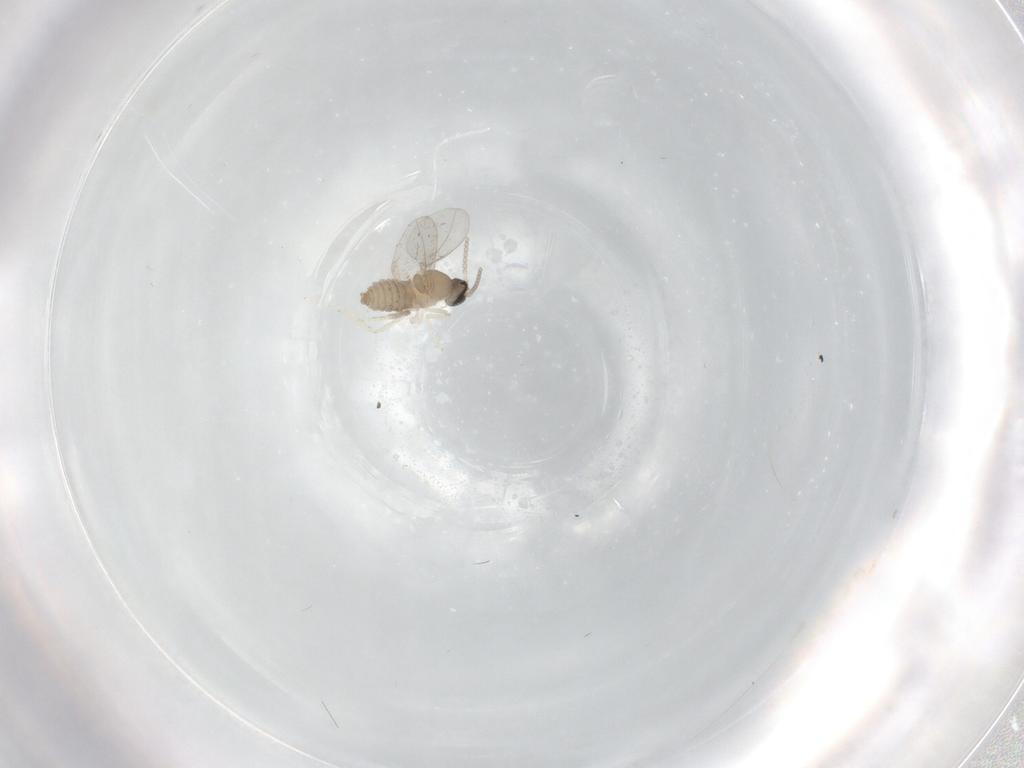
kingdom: Animalia
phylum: Arthropoda
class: Insecta
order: Diptera
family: Cecidomyiidae
